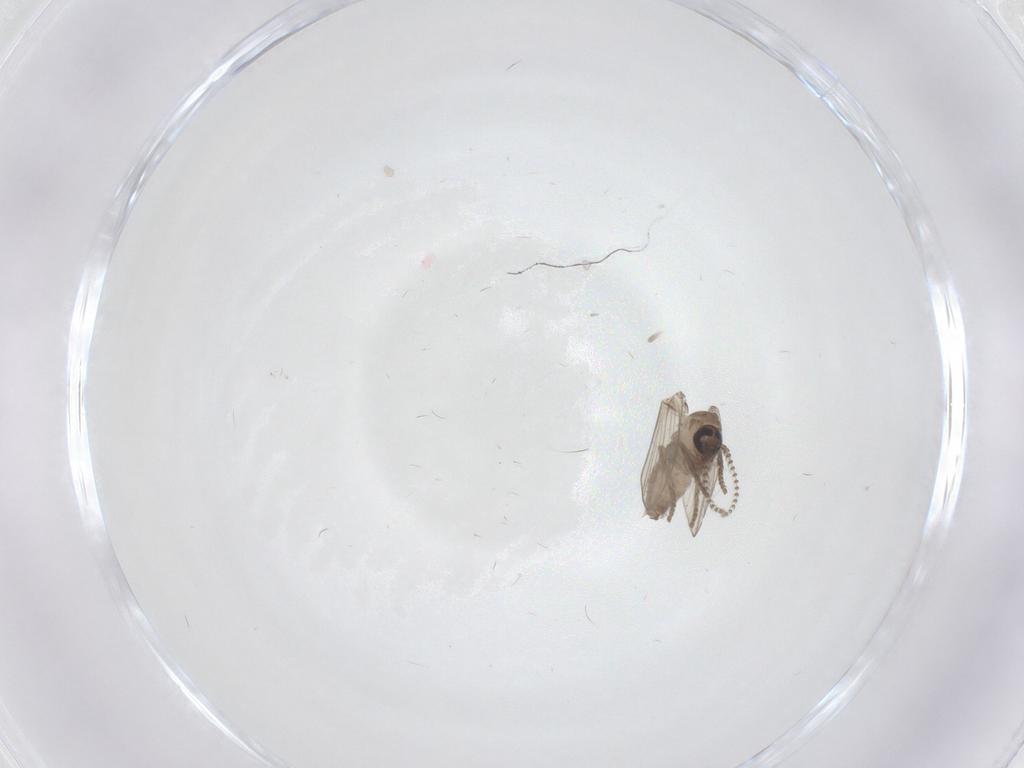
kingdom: Animalia
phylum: Arthropoda
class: Insecta
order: Diptera
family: Psychodidae
